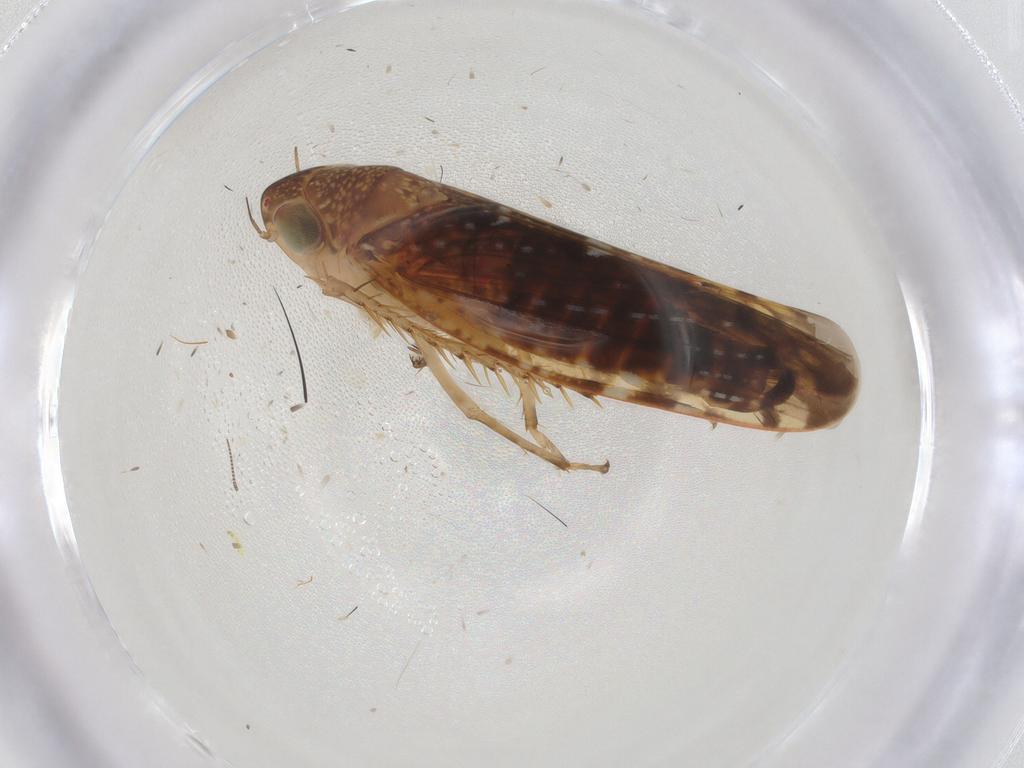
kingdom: Animalia
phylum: Arthropoda
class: Insecta
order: Hemiptera
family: Cicadellidae
